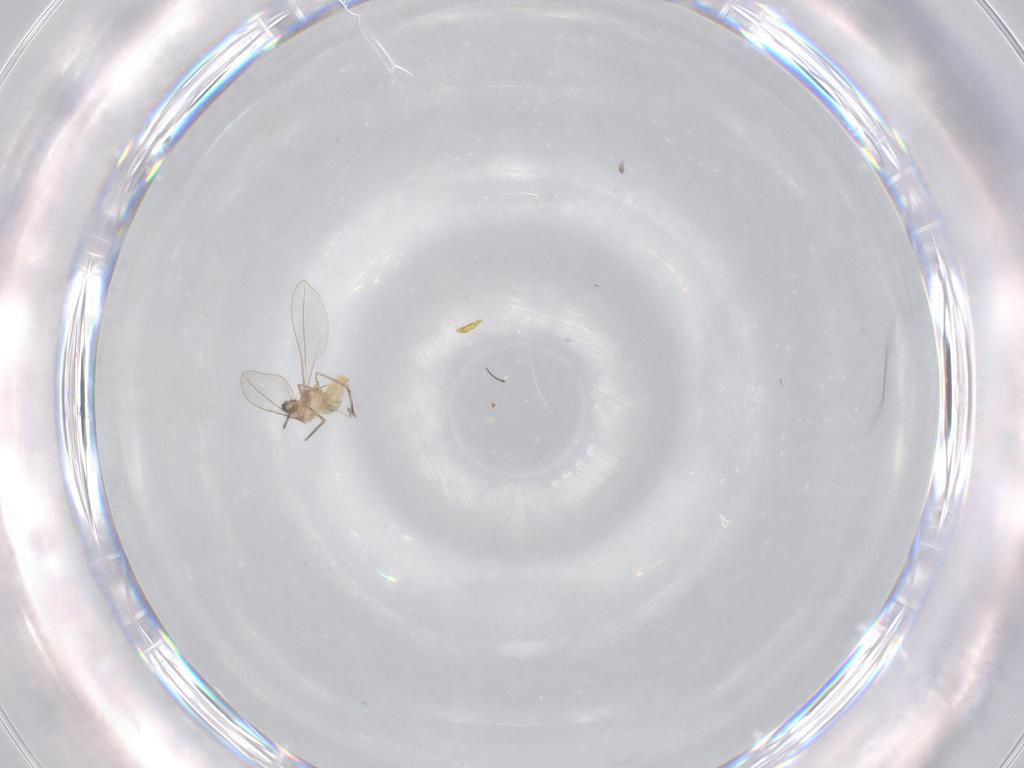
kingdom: Animalia
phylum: Arthropoda
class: Insecta
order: Diptera
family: Cecidomyiidae
